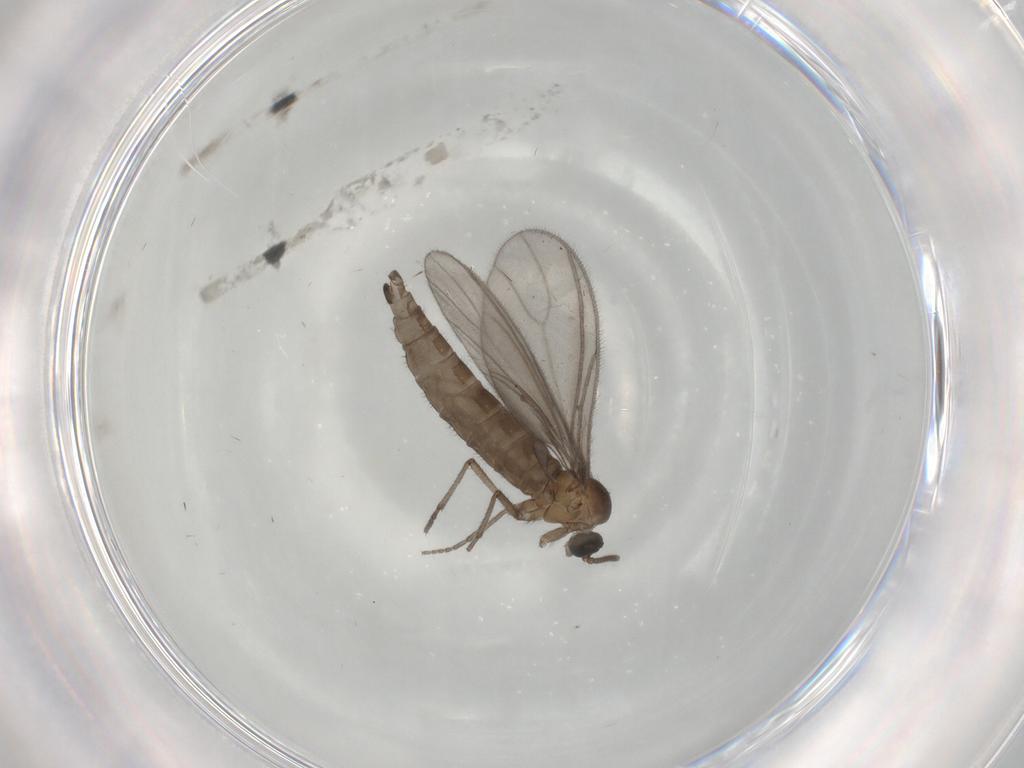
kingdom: Animalia
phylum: Arthropoda
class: Insecta
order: Diptera
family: Sciaridae
